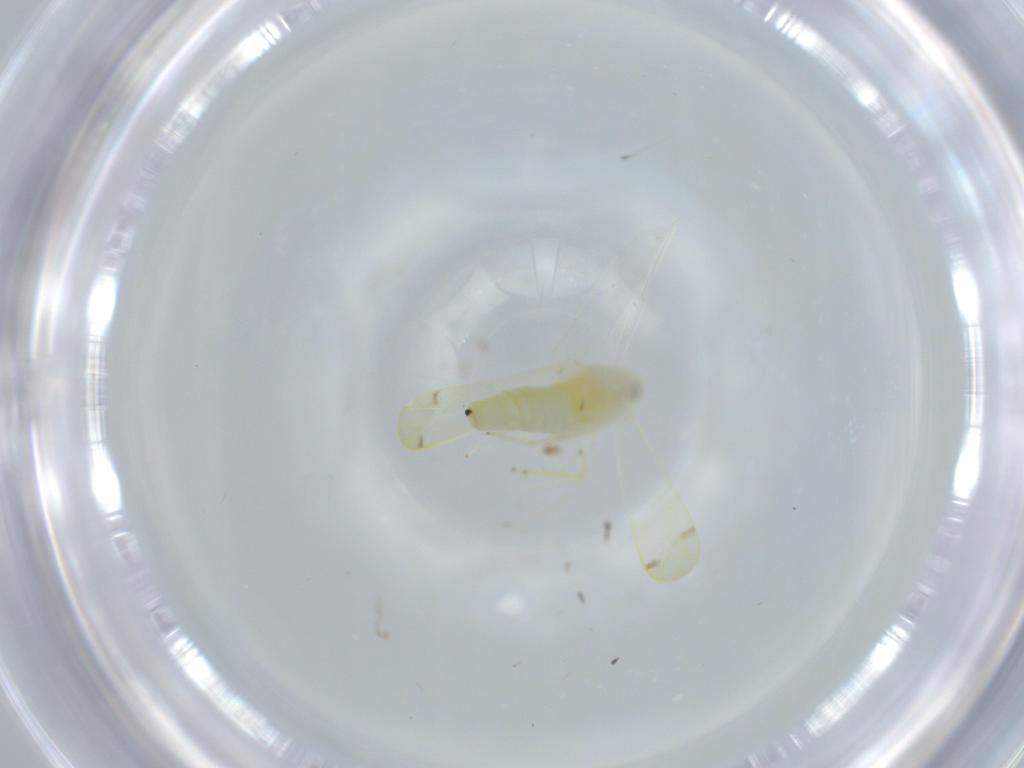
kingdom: Animalia
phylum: Arthropoda
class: Insecta
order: Hemiptera
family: Cicadellidae
